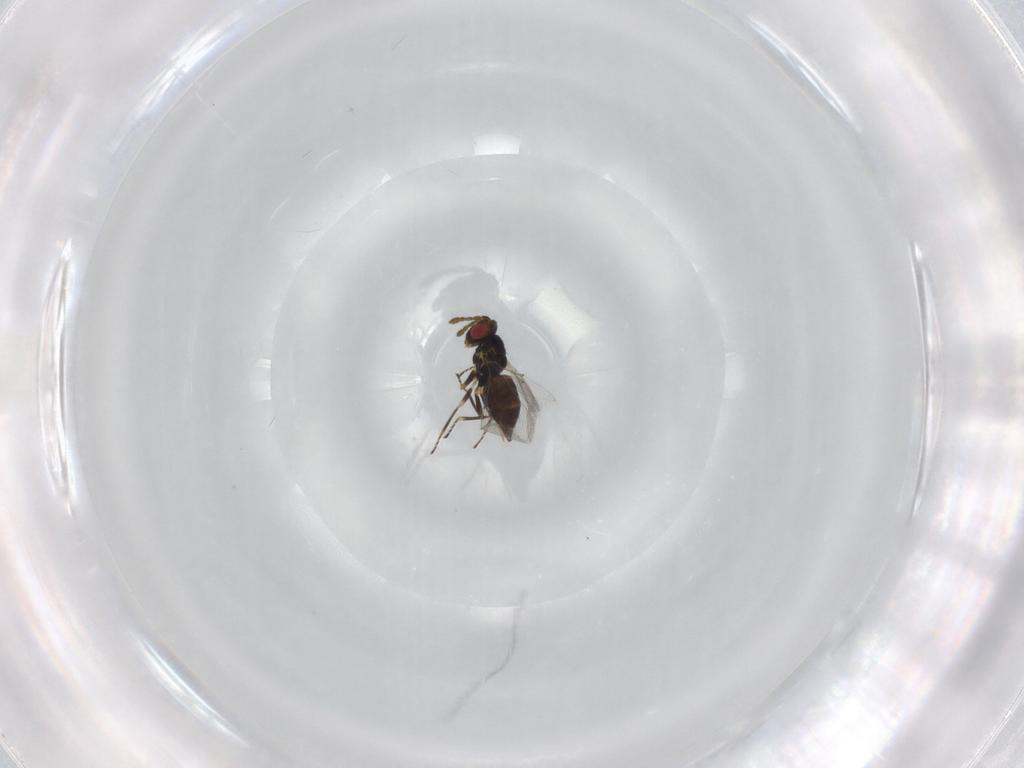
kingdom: Animalia
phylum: Arthropoda
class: Insecta
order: Hymenoptera
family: Eulophidae
